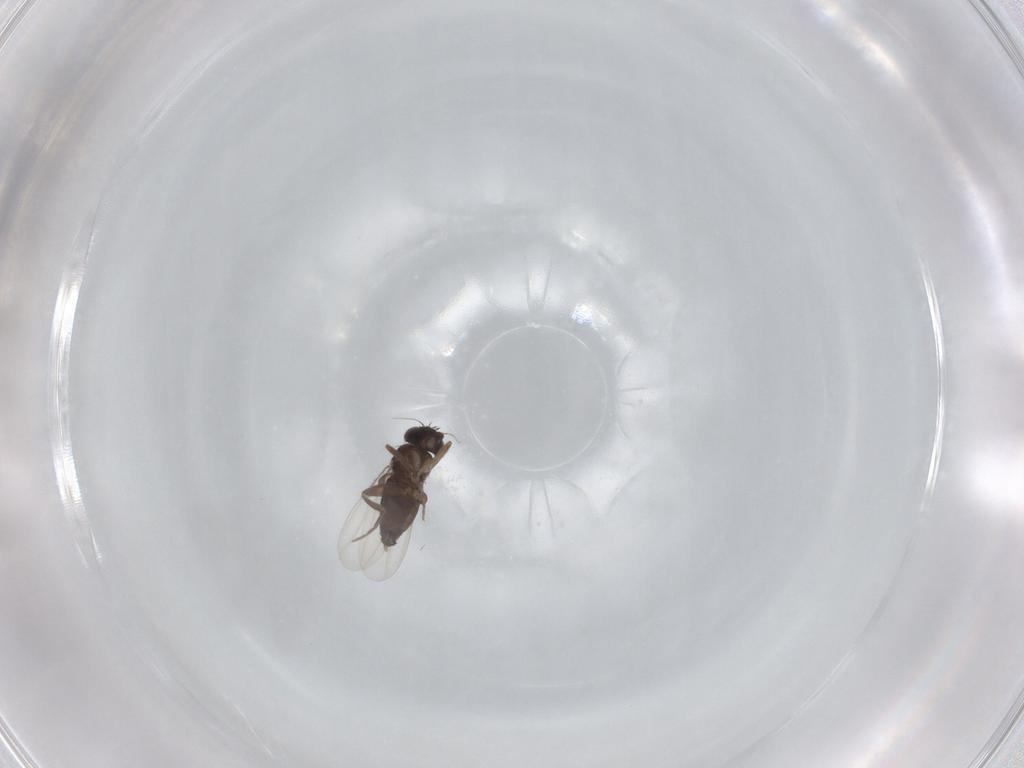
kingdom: Animalia
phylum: Arthropoda
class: Insecta
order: Diptera
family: Phoridae
